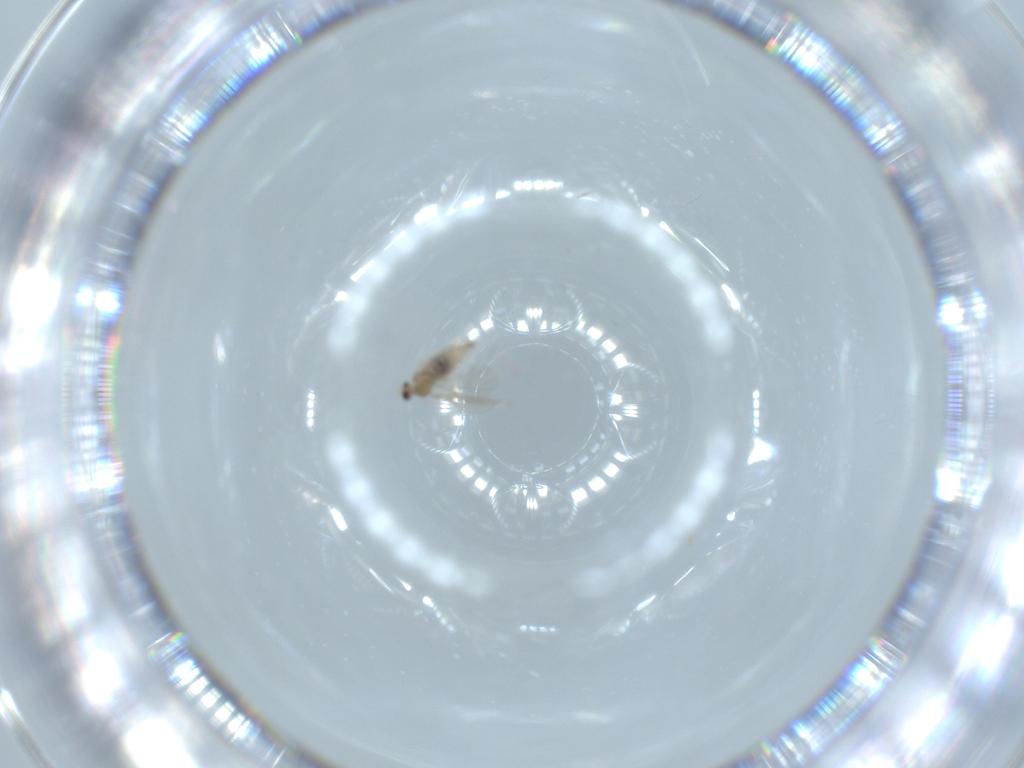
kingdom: Animalia
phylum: Arthropoda
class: Insecta
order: Diptera
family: Cecidomyiidae
